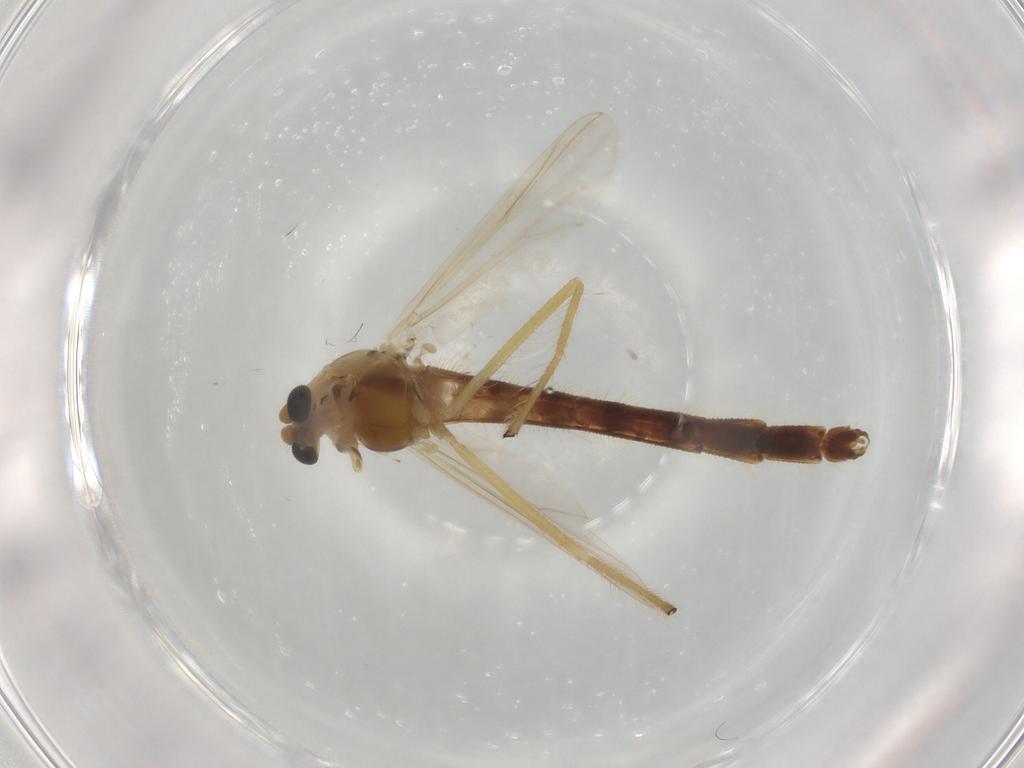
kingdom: Animalia
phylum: Arthropoda
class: Insecta
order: Diptera
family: Chironomidae
